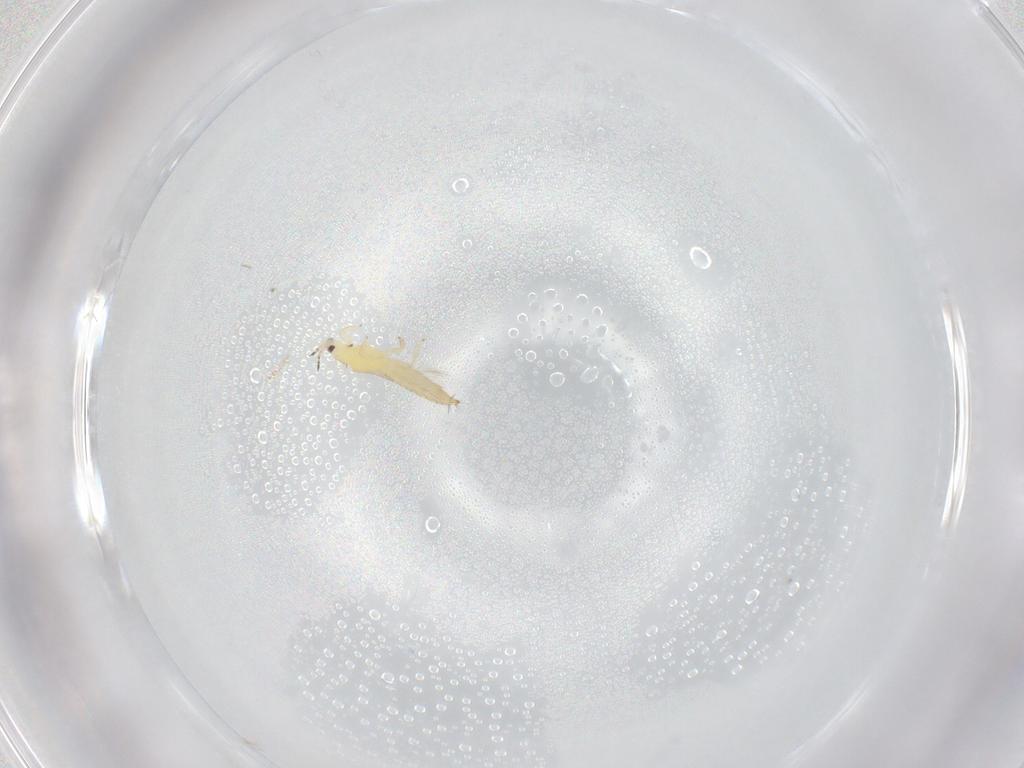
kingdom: Animalia
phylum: Arthropoda
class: Insecta
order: Thysanoptera
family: Thripidae
